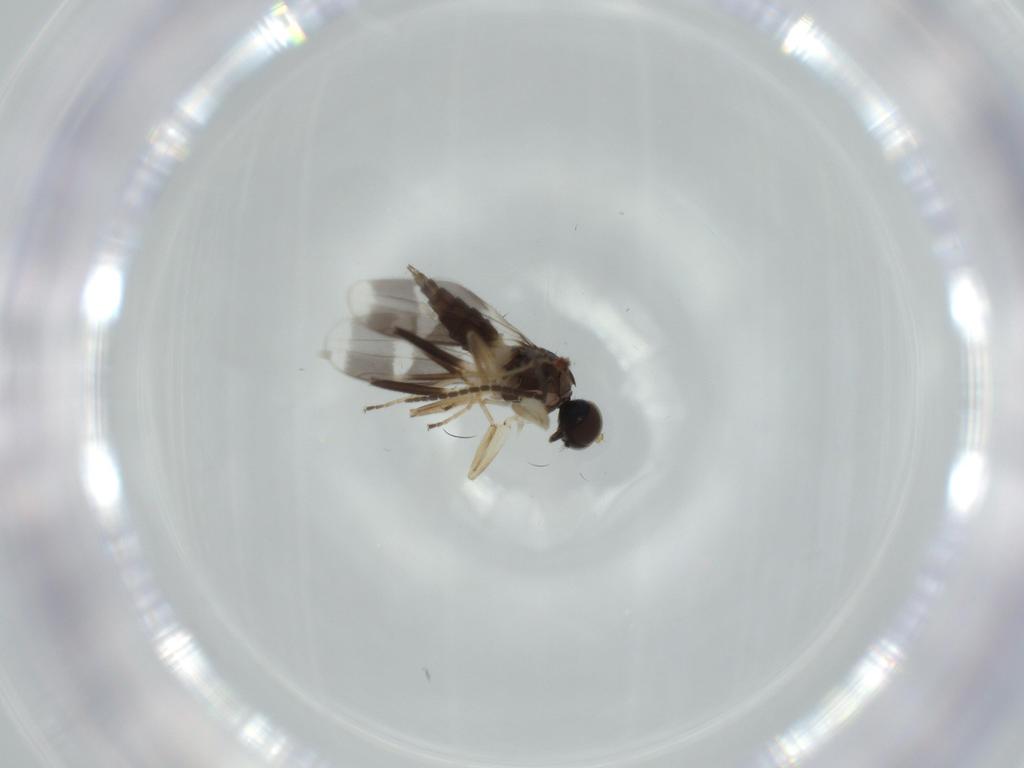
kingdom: Animalia
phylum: Arthropoda
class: Insecta
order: Diptera
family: Hybotidae
